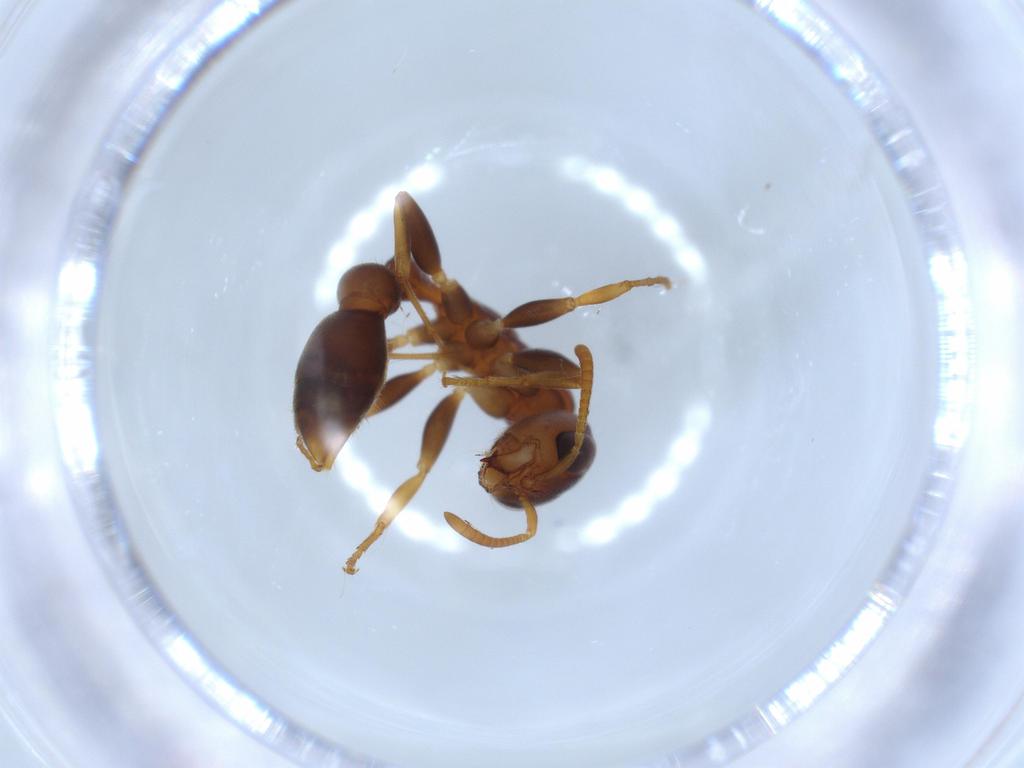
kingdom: Animalia
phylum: Arthropoda
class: Insecta
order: Hymenoptera
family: Formicidae
